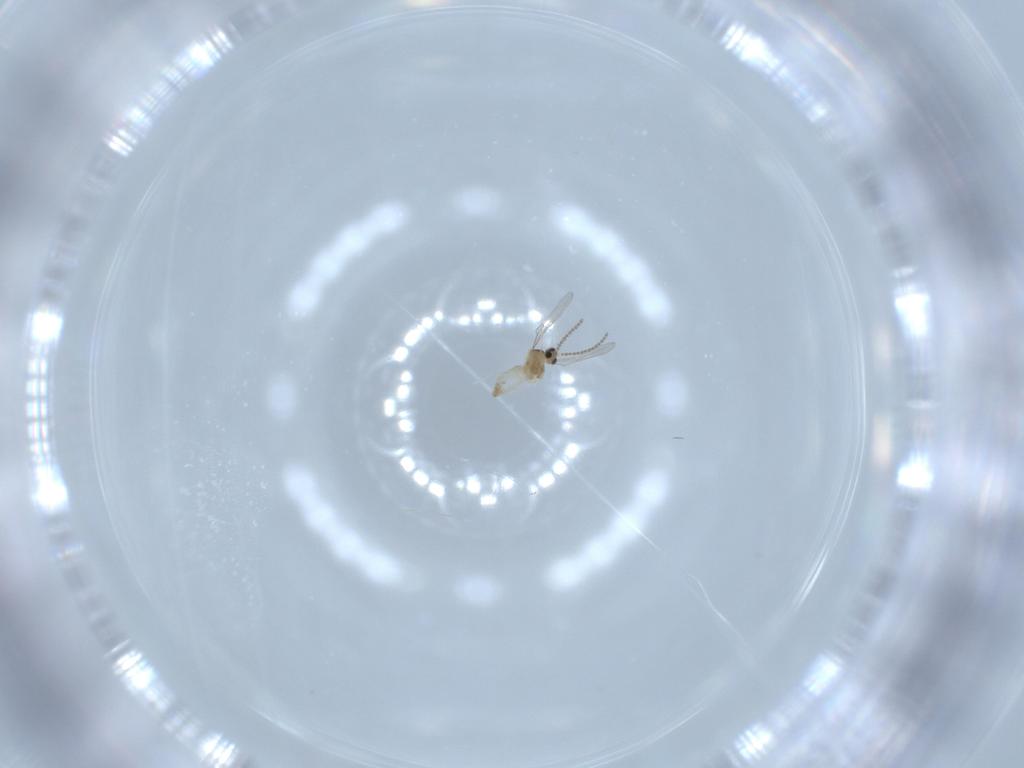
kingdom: Animalia
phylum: Arthropoda
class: Insecta
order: Diptera
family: Cecidomyiidae
